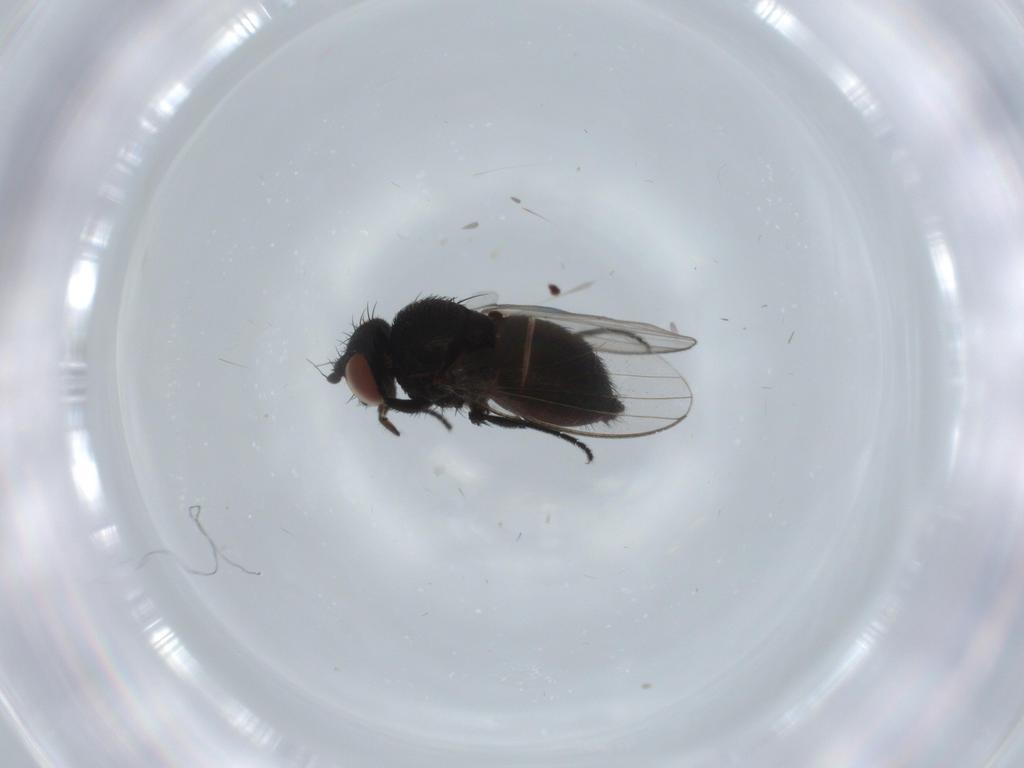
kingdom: Animalia
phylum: Arthropoda
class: Insecta
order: Diptera
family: Milichiidae
